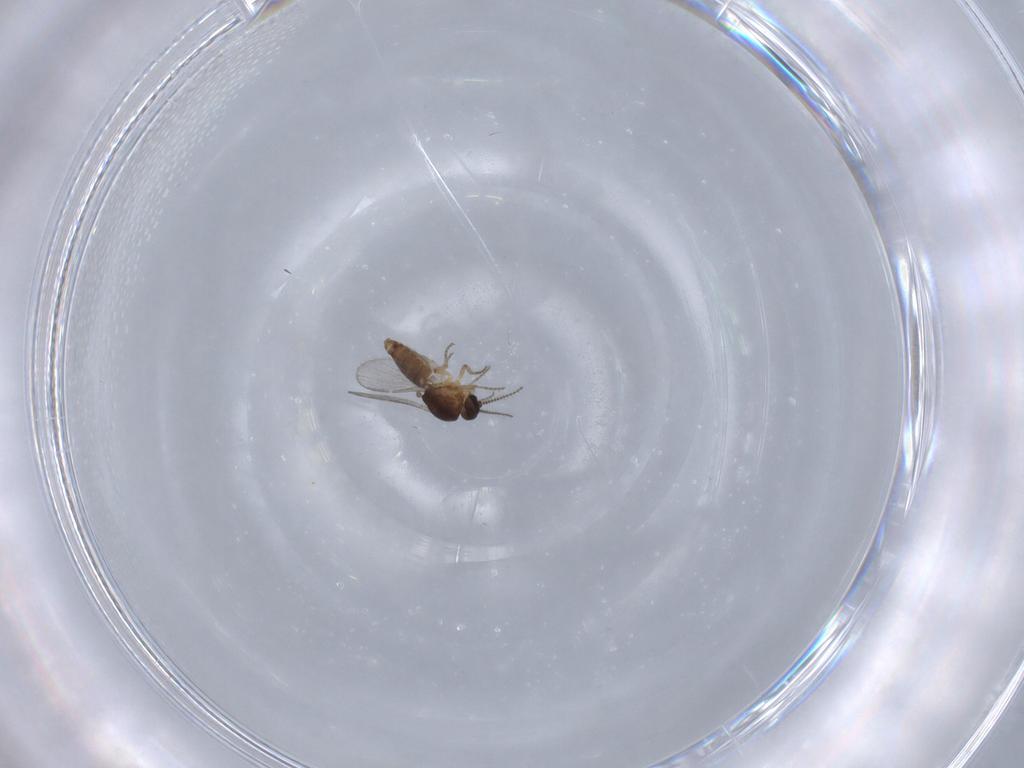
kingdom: Animalia
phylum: Arthropoda
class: Insecta
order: Diptera
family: Ceratopogonidae
